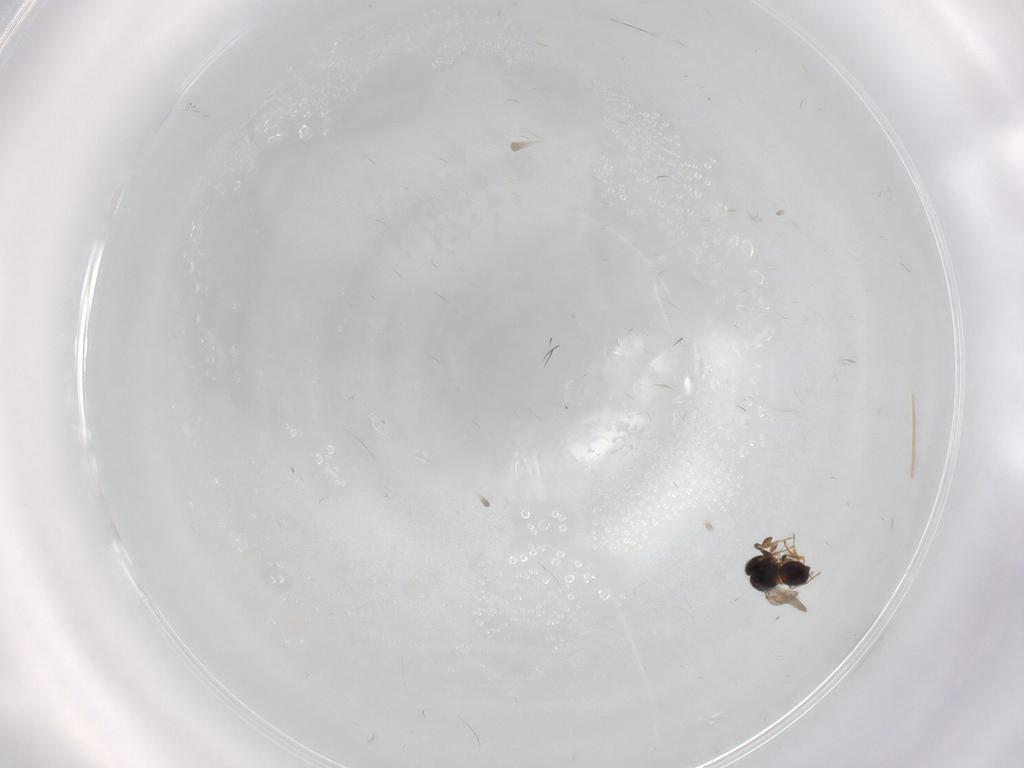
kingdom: Animalia
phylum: Arthropoda
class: Insecta
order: Hymenoptera
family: Scelionidae
